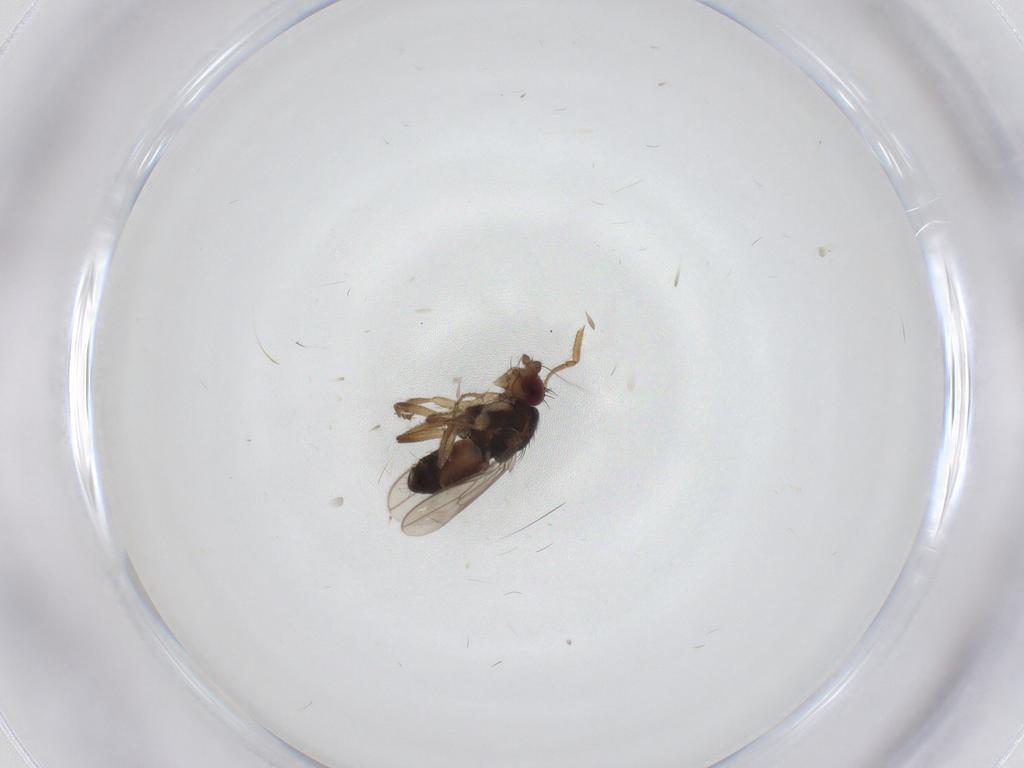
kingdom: Animalia
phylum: Arthropoda
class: Insecta
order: Diptera
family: Sphaeroceridae
